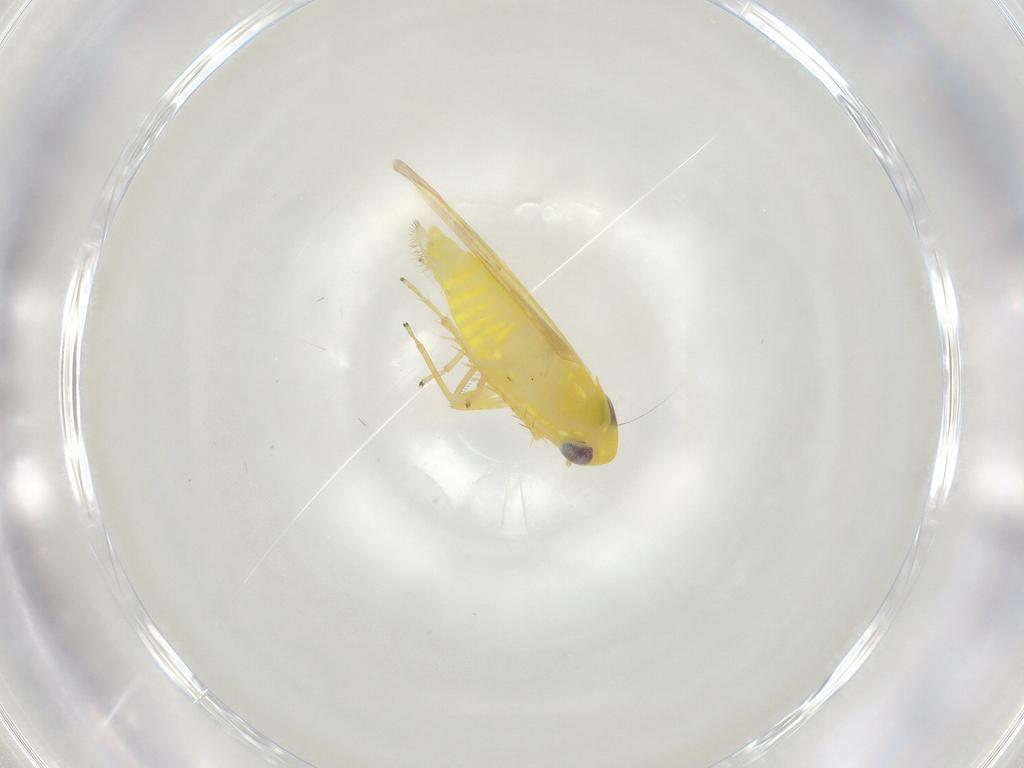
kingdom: Animalia
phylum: Arthropoda
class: Insecta
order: Hemiptera
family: Cicadellidae
